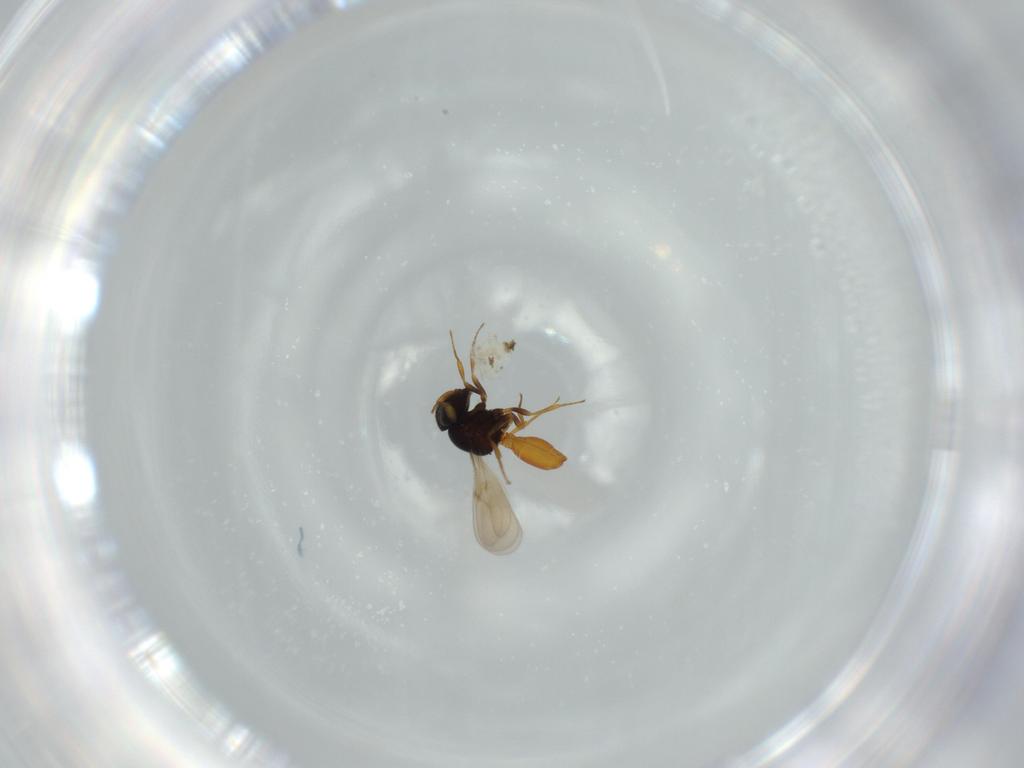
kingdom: Animalia
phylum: Arthropoda
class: Insecta
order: Hymenoptera
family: Scelionidae
